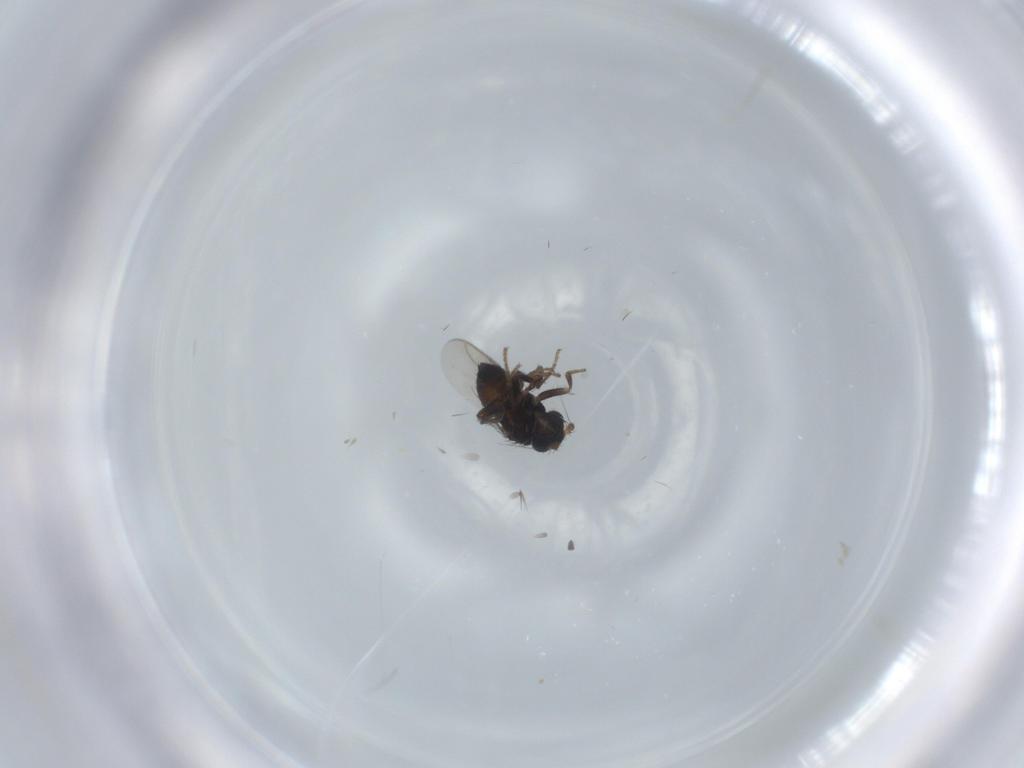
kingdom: Animalia
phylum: Arthropoda
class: Insecta
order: Diptera
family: Sphaeroceridae
